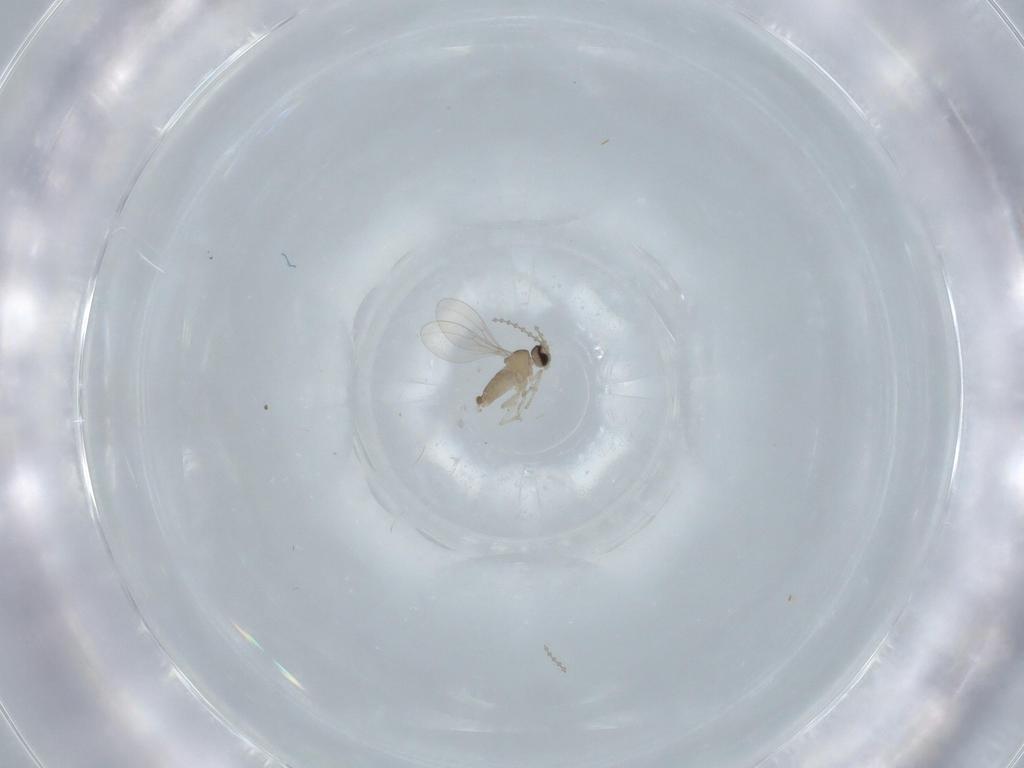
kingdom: Animalia
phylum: Arthropoda
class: Insecta
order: Diptera
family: Cecidomyiidae
